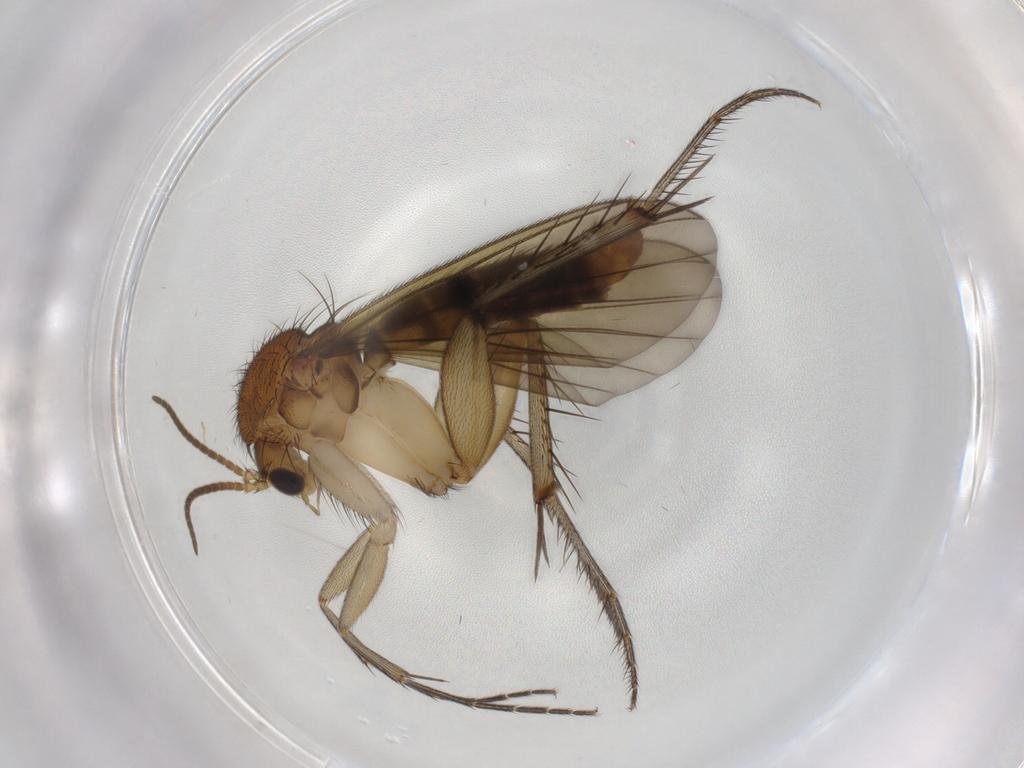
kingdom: Animalia
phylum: Arthropoda
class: Insecta
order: Diptera
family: Mycetophilidae
